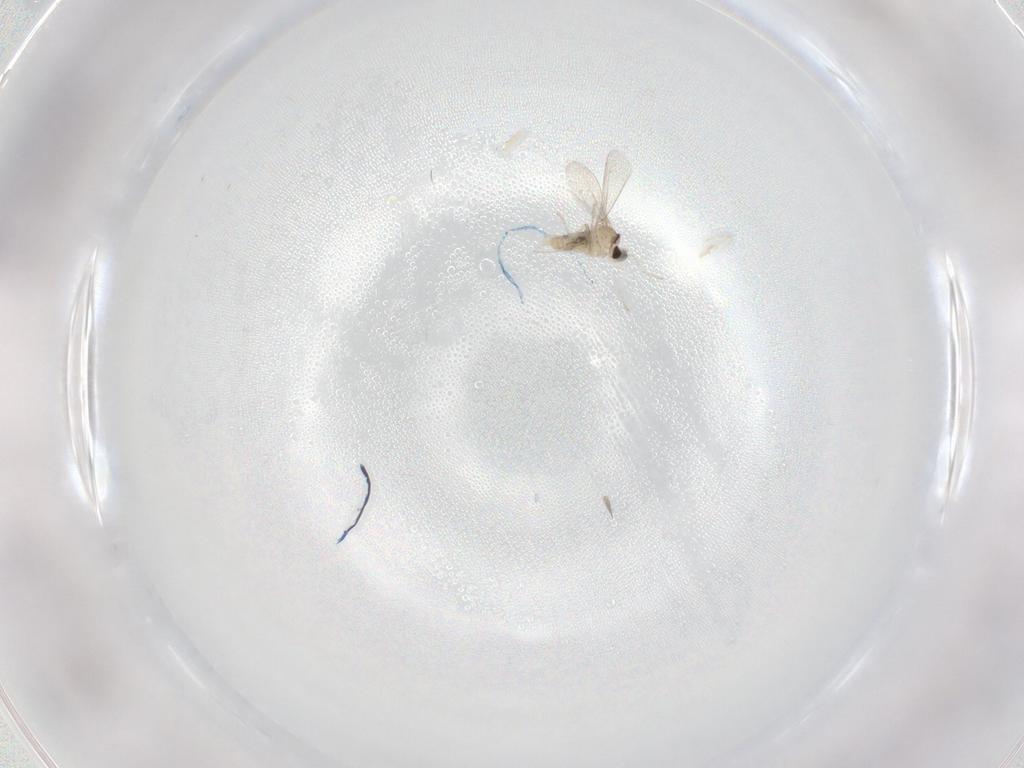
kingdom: Animalia
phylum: Arthropoda
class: Insecta
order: Diptera
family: Cecidomyiidae
